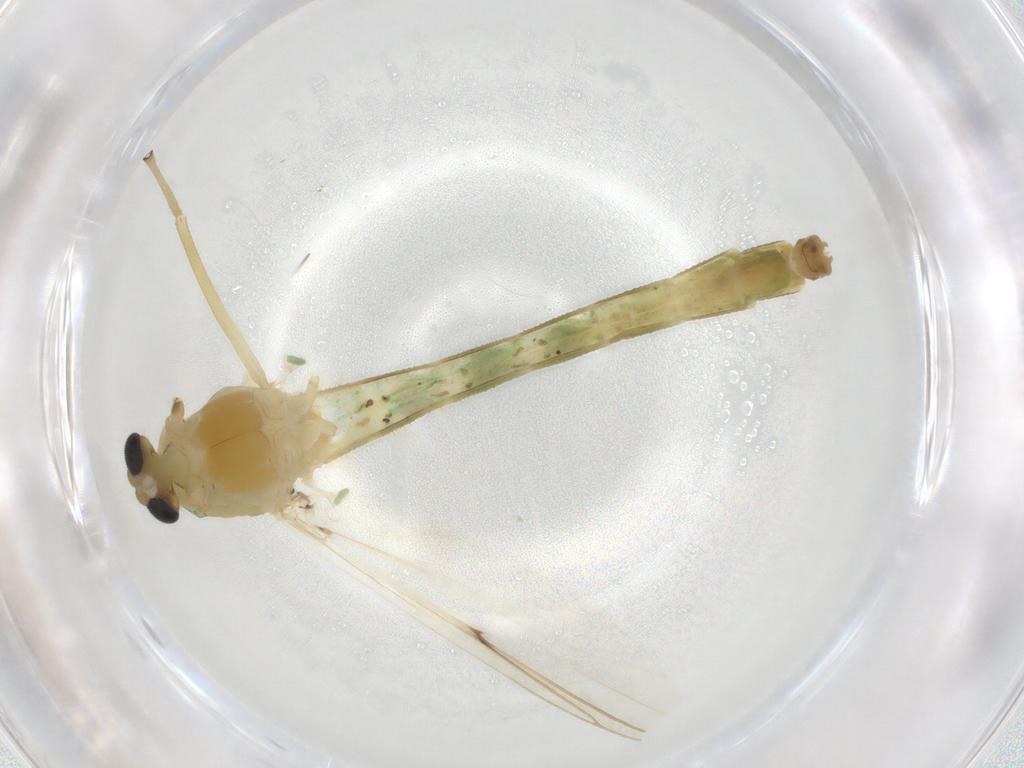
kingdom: Animalia
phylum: Arthropoda
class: Insecta
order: Diptera
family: Chironomidae
